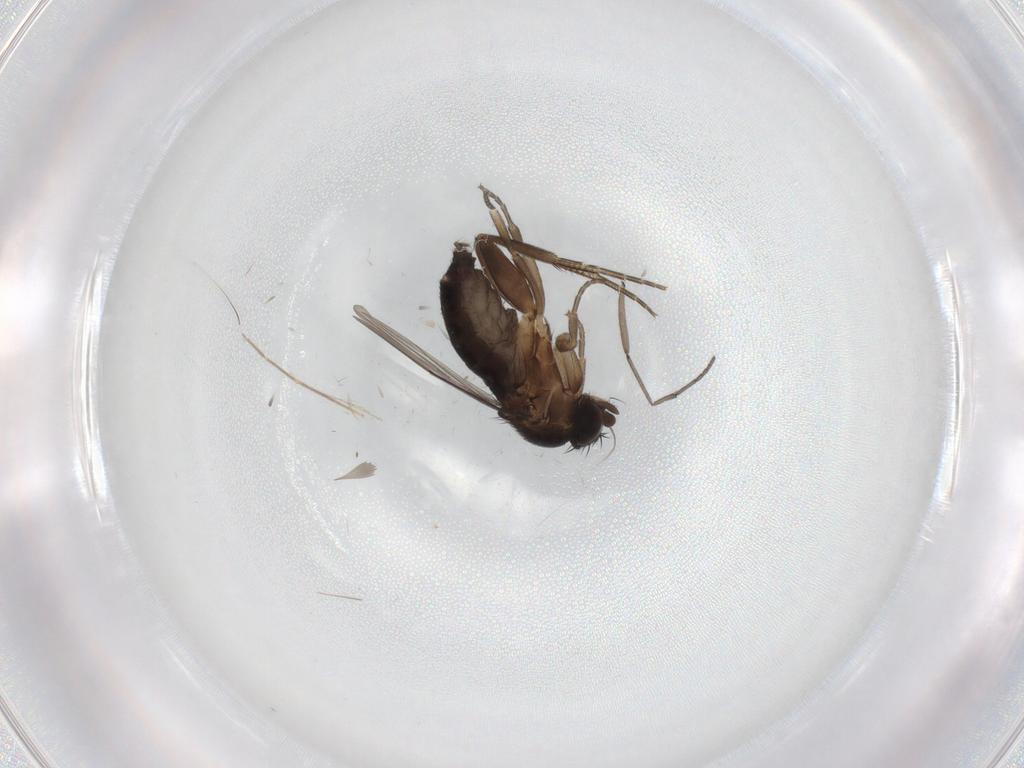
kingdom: Animalia
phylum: Arthropoda
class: Insecta
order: Diptera
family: Phoridae
